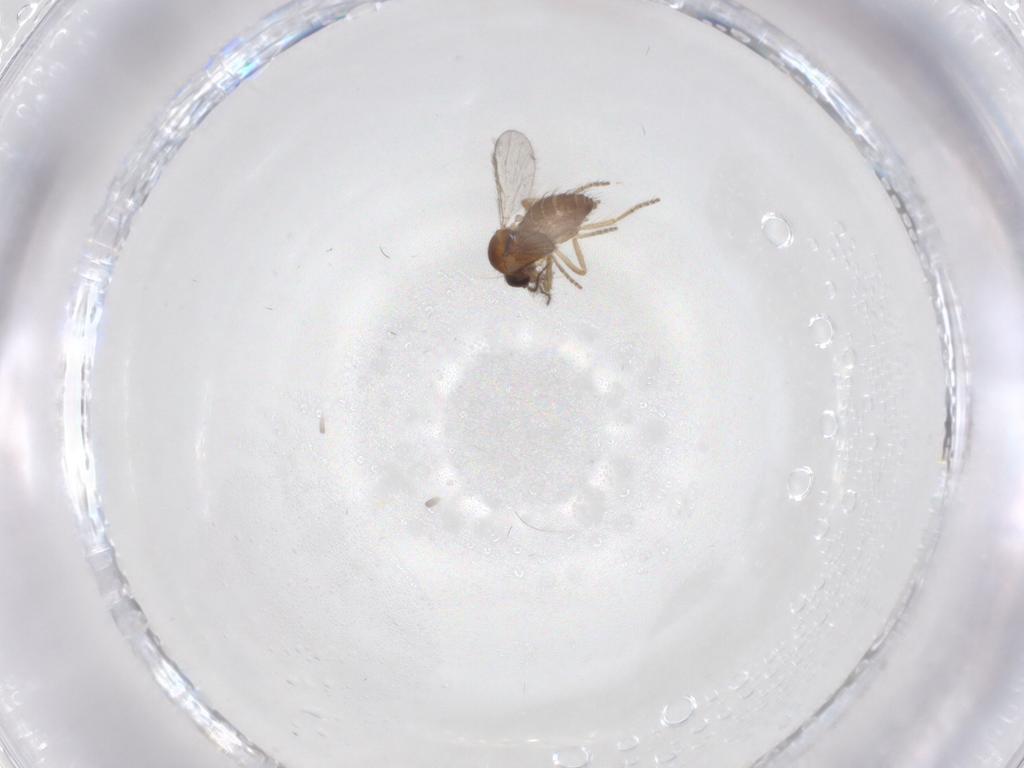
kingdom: Animalia
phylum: Arthropoda
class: Insecta
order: Diptera
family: Ceratopogonidae
